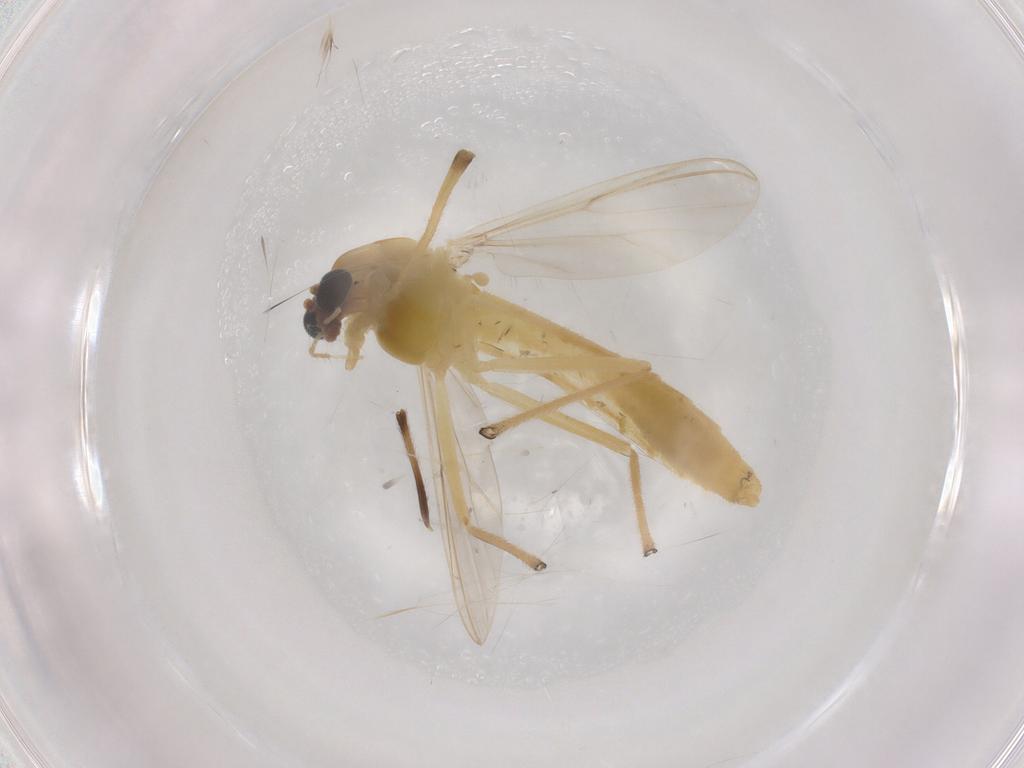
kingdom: Animalia
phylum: Arthropoda
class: Insecta
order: Diptera
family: Chironomidae
